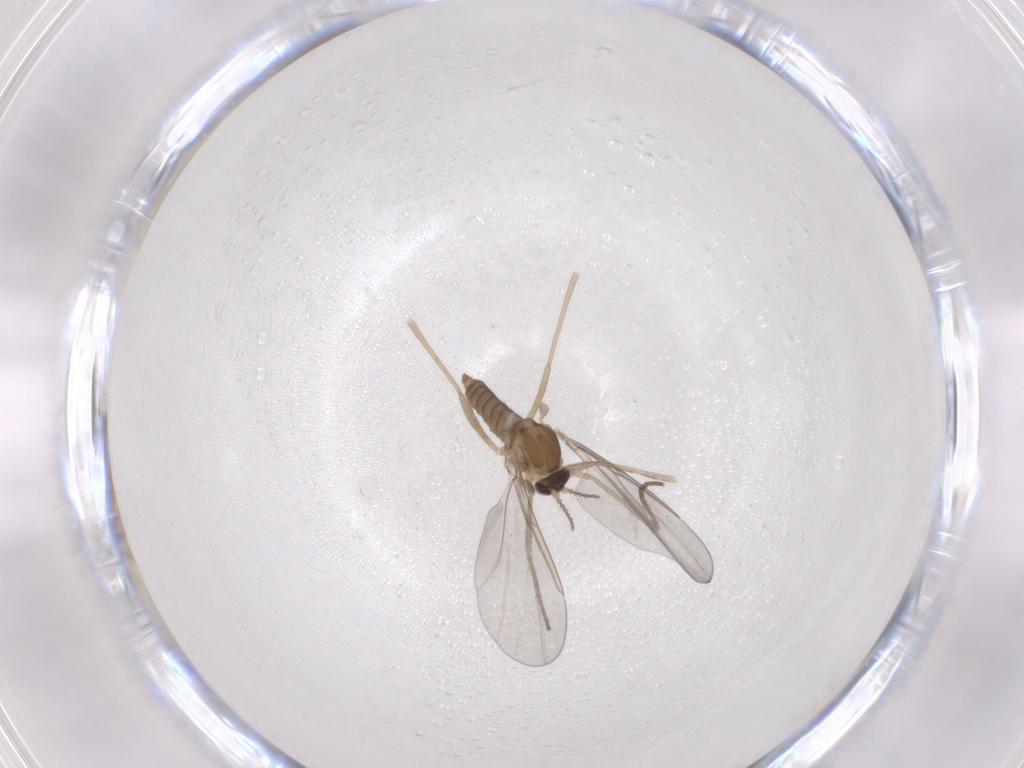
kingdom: Animalia
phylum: Arthropoda
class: Insecta
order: Diptera
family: Cecidomyiidae
